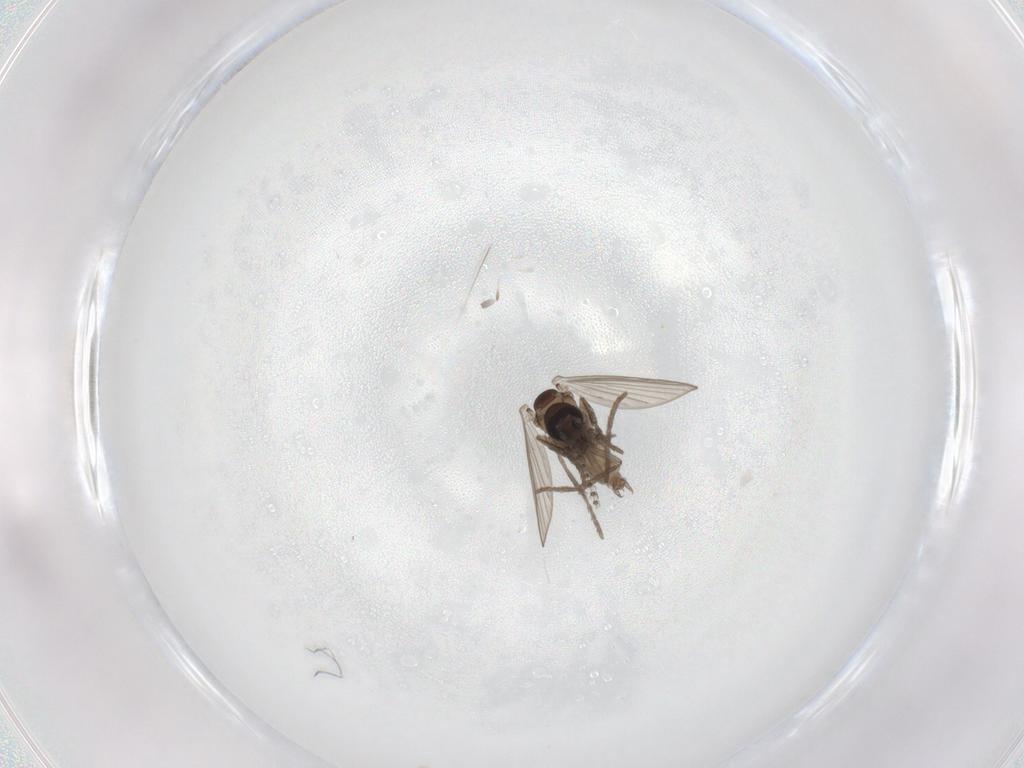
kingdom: Animalia
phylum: Arthropoda
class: Insecta
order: Diptera
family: Psychodidae
